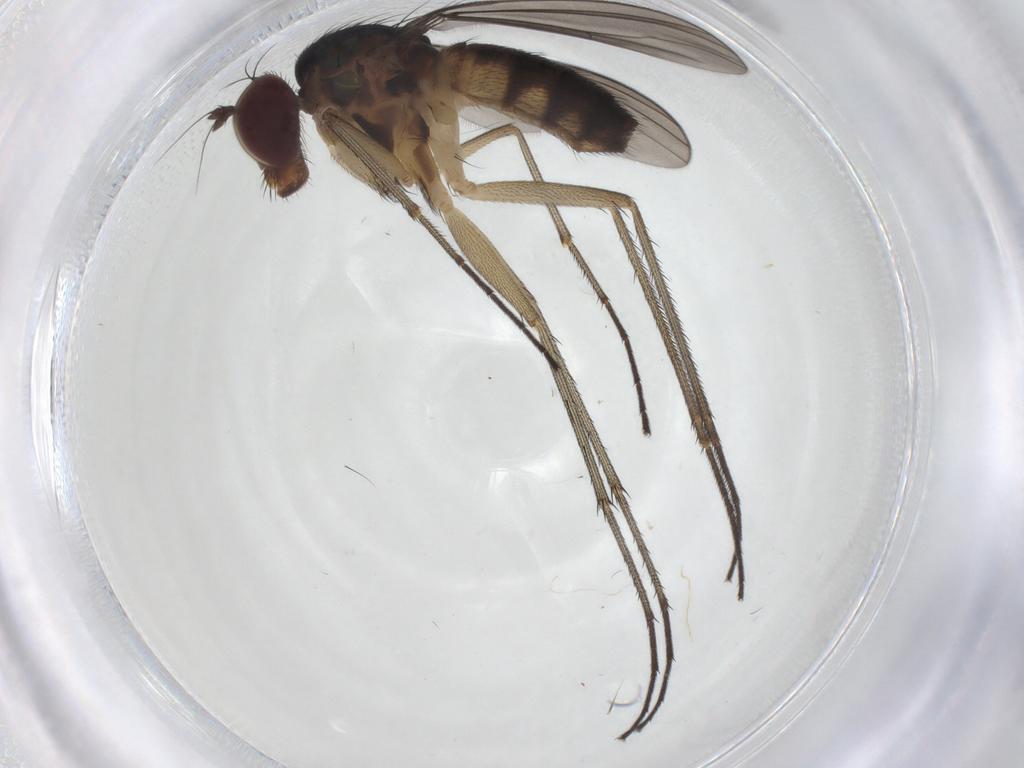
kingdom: Animalia
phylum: Arthropoda
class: Insecta
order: Diptera
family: Dolichopodidae
